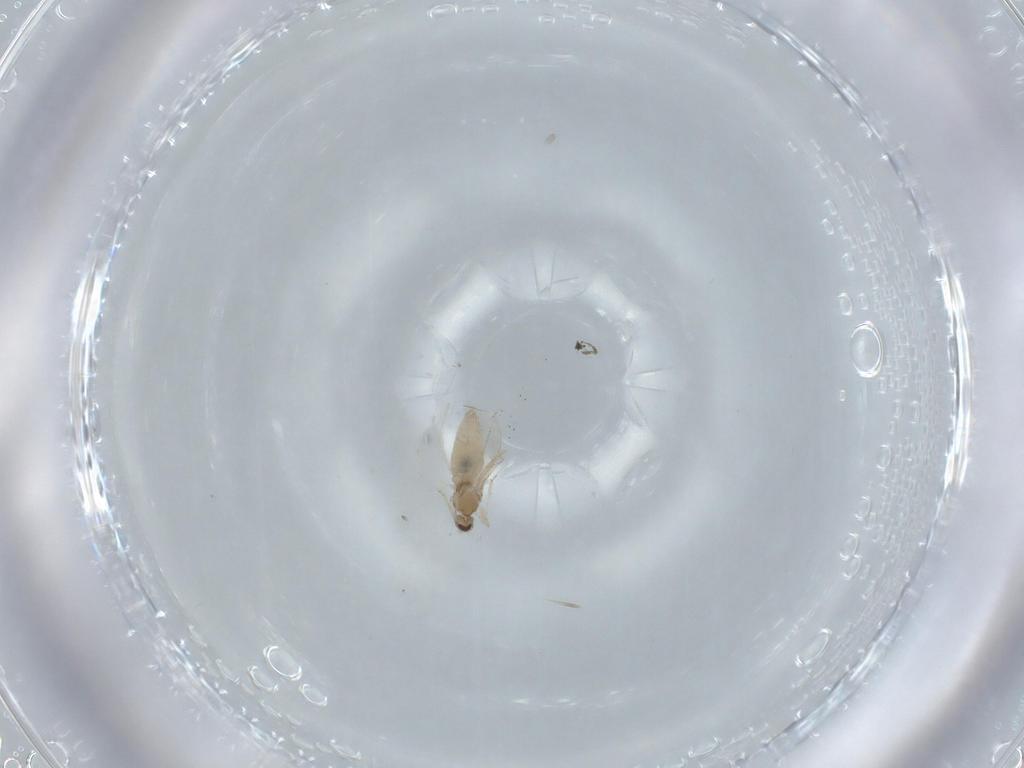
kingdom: Animalia
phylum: Arthropoda
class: Insecta
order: Diptera
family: Cecidomyiidae
